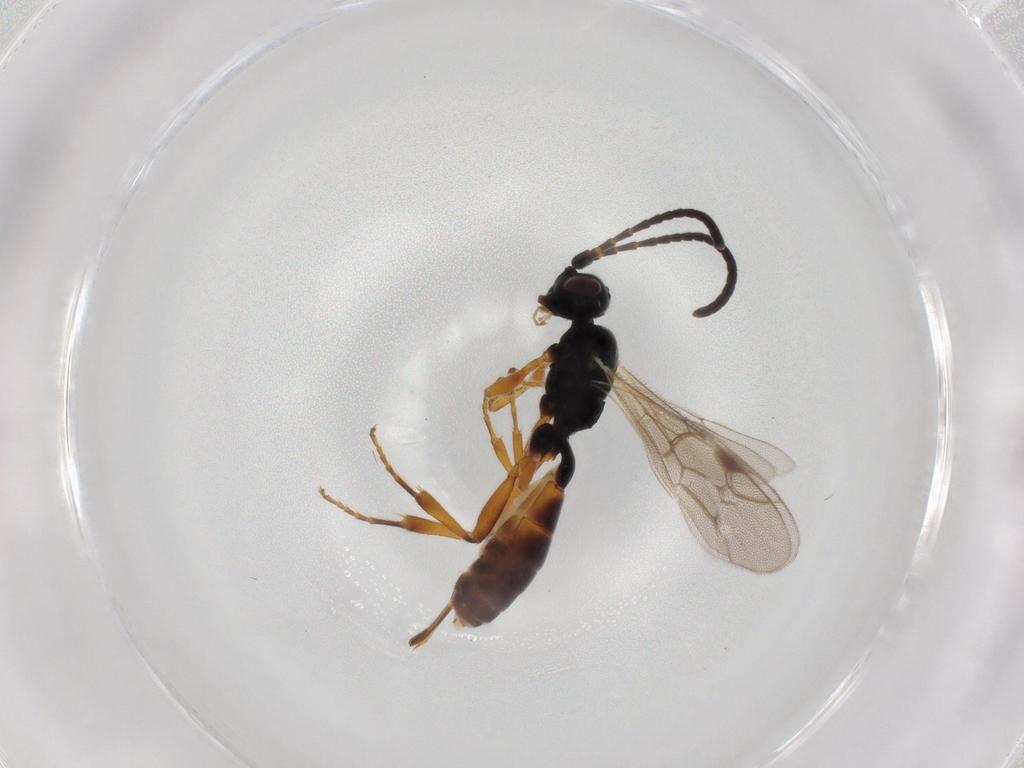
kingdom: Animalia
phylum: Arthropoda
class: Insecta
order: Hymenoptera
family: Ichneumonidae
